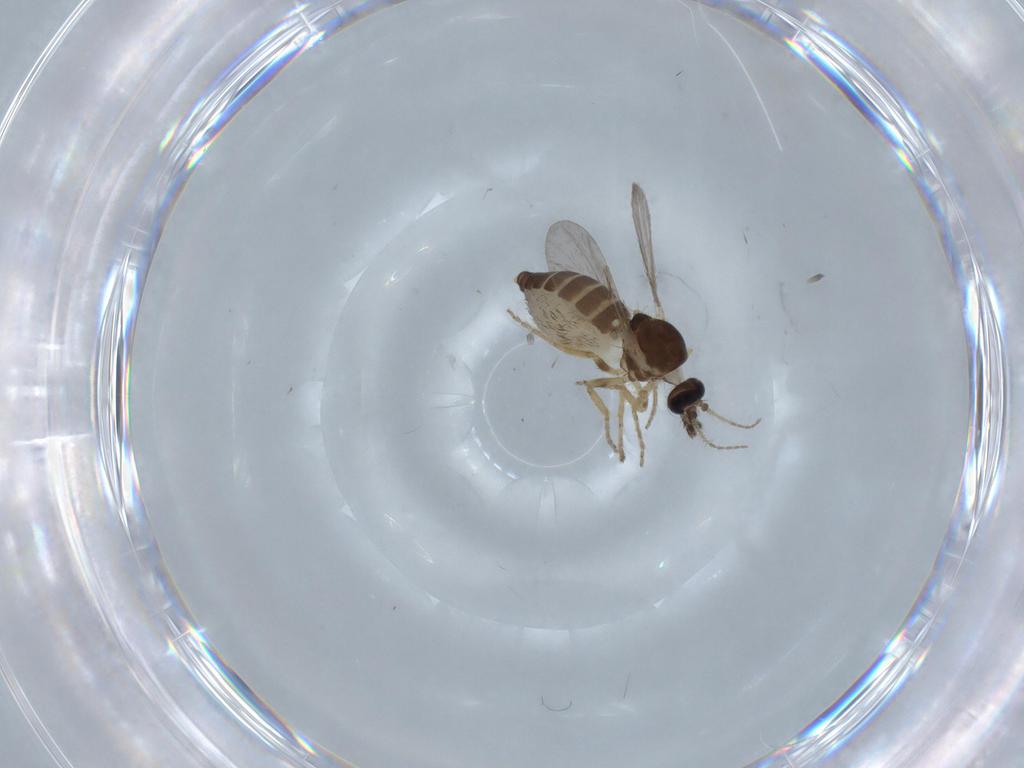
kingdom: Animalia
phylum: Arthropoda
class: Insecta
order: Diptera
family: Ceratopogonidae
